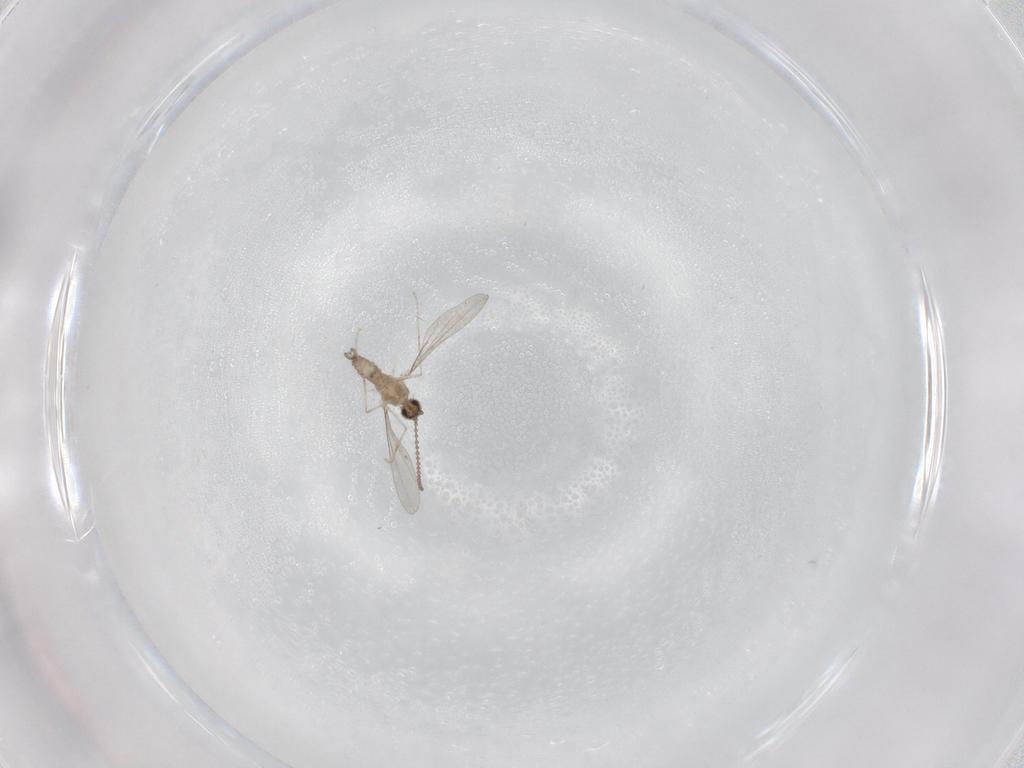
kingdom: Animalia
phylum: Arthropoda
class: Insecta
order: Diptera
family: Cecidomyiidae
